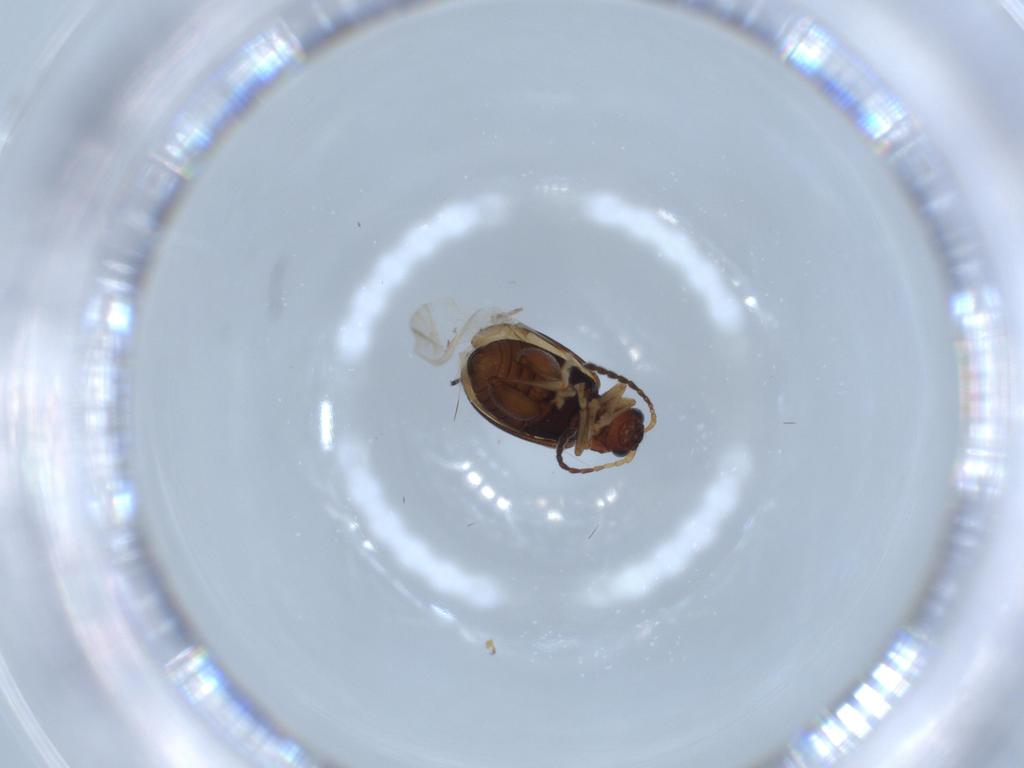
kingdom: Animalia
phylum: Arthropoda
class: Insecta
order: Coleoptera
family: Chrysomelidae
